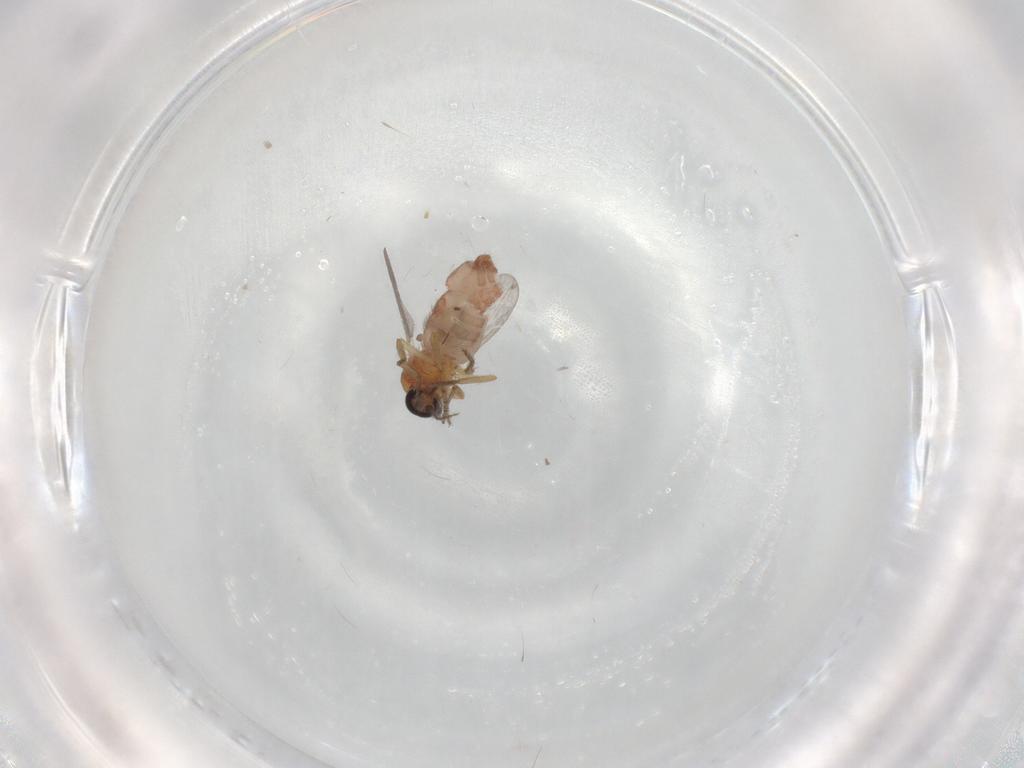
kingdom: Animalia
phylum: Arthropoda
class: Insecta
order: Diptera
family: Ceratopogonidae
